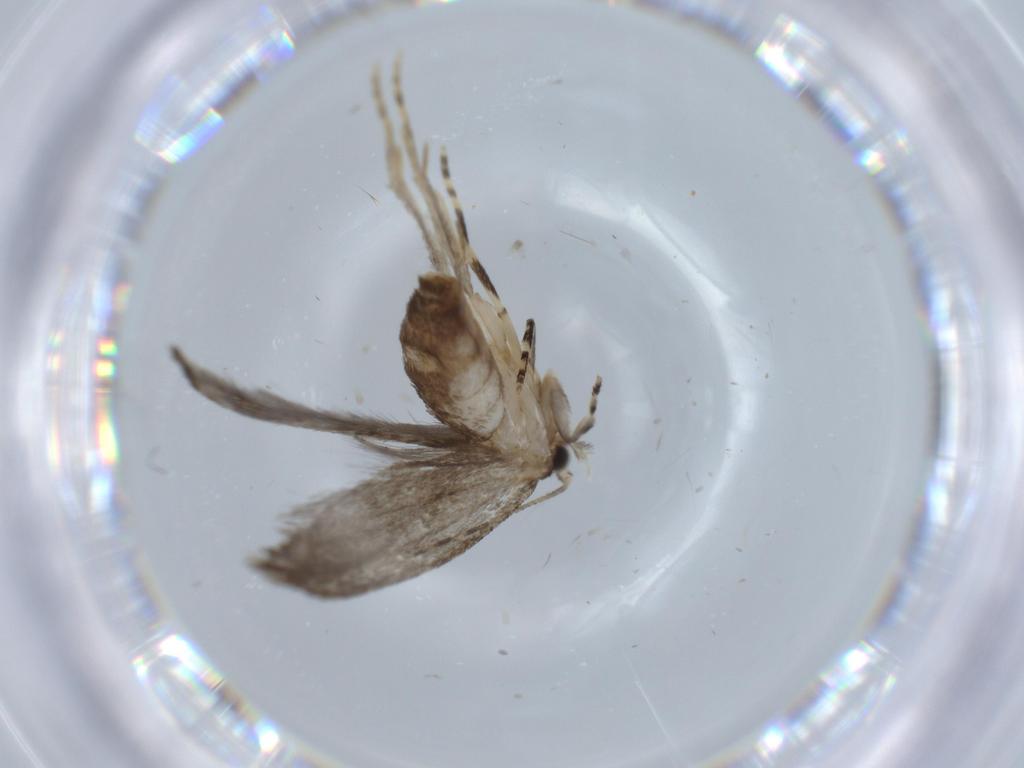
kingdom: Animalia
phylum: Arthropoda
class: Insecta
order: Lepidoptera
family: Tineidae
